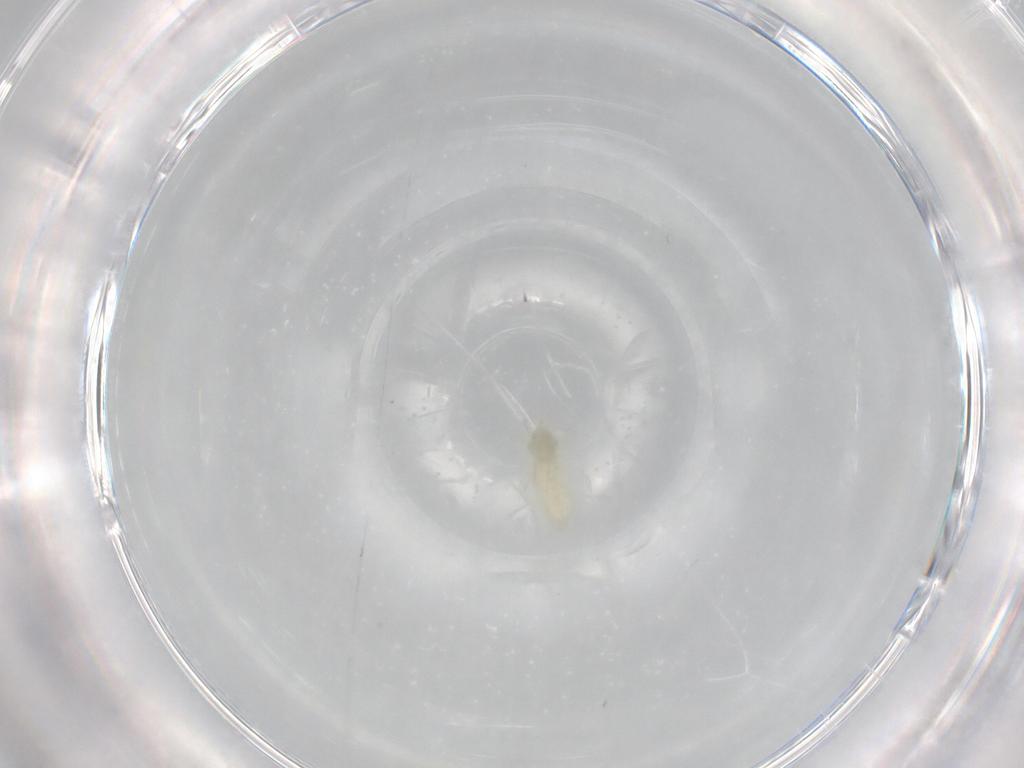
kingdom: Animalia
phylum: Arthropoda
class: Insecta
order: Diptera
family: Cecidomyiidae
